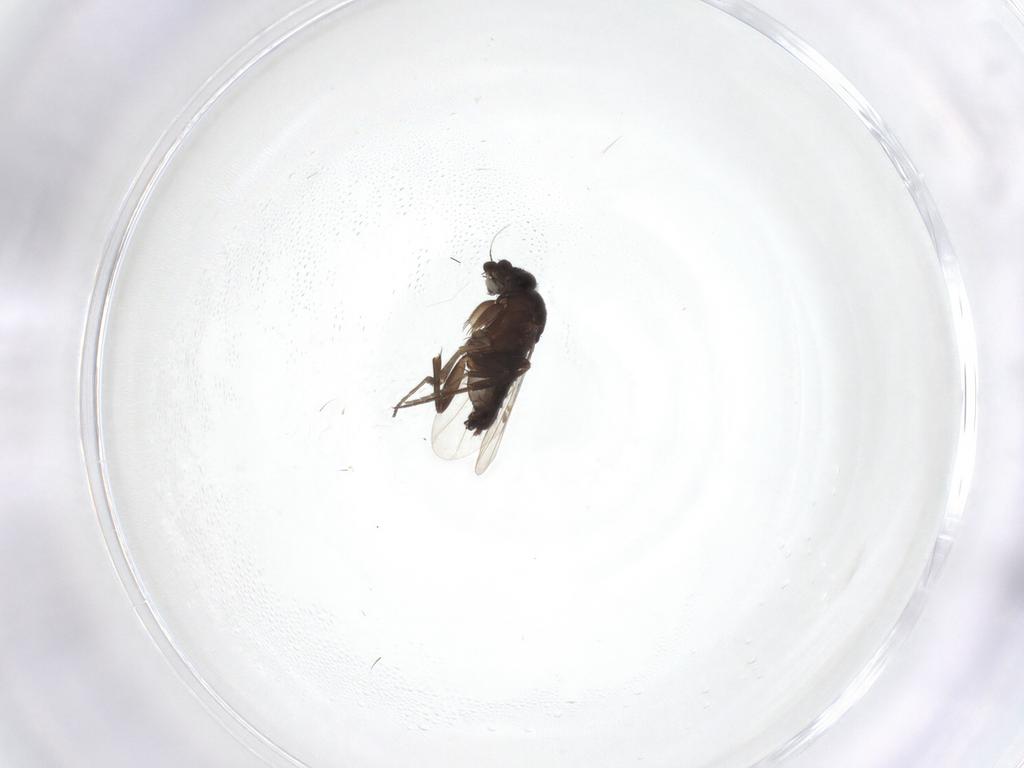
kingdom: Animalia
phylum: Arthropoda
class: Insecta
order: Diptera
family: Phoridae
